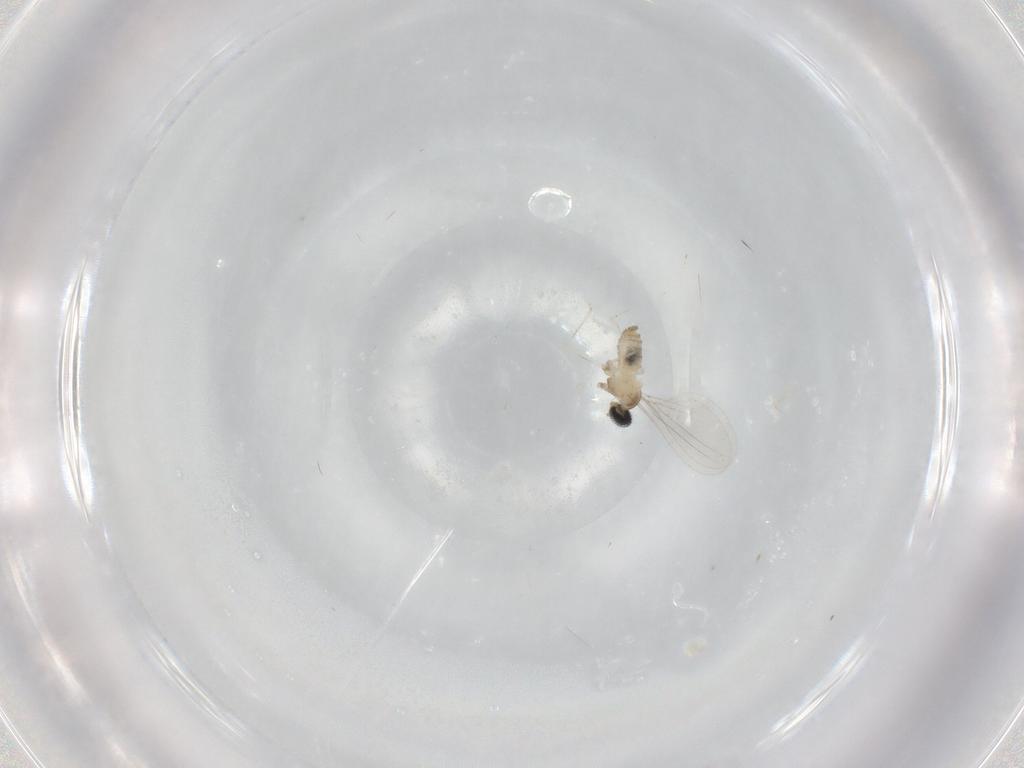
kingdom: Animalia
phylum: Arthropoda
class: Insecta
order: Diptera
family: Cecidomyiidae
